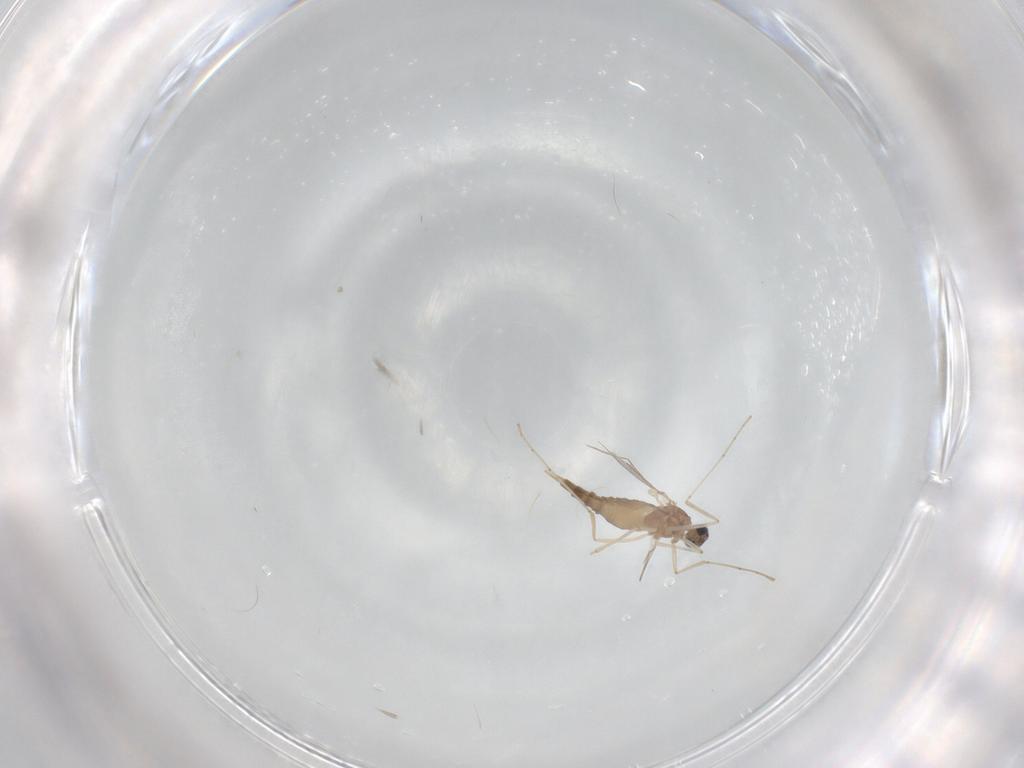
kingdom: Animalia
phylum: Arthropoda
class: Insecta
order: Diptera
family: Cecidomyiidae
